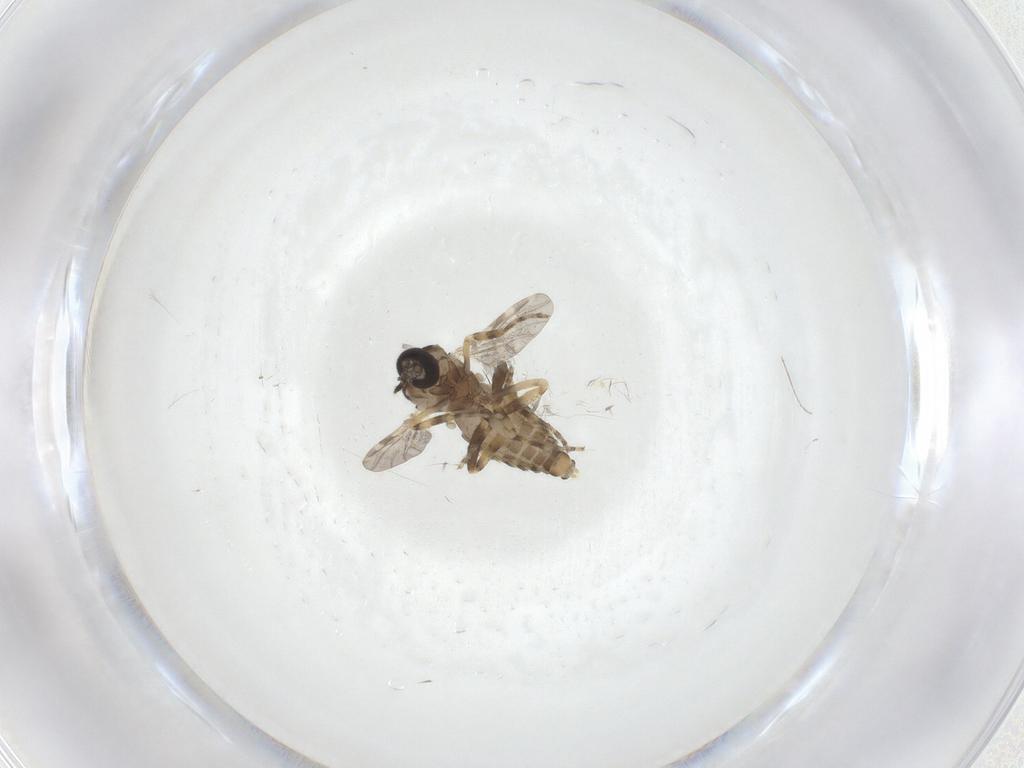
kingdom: Animalia
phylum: Arthropoda
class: Insecta
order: Diptera
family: Ceratopogonidae
